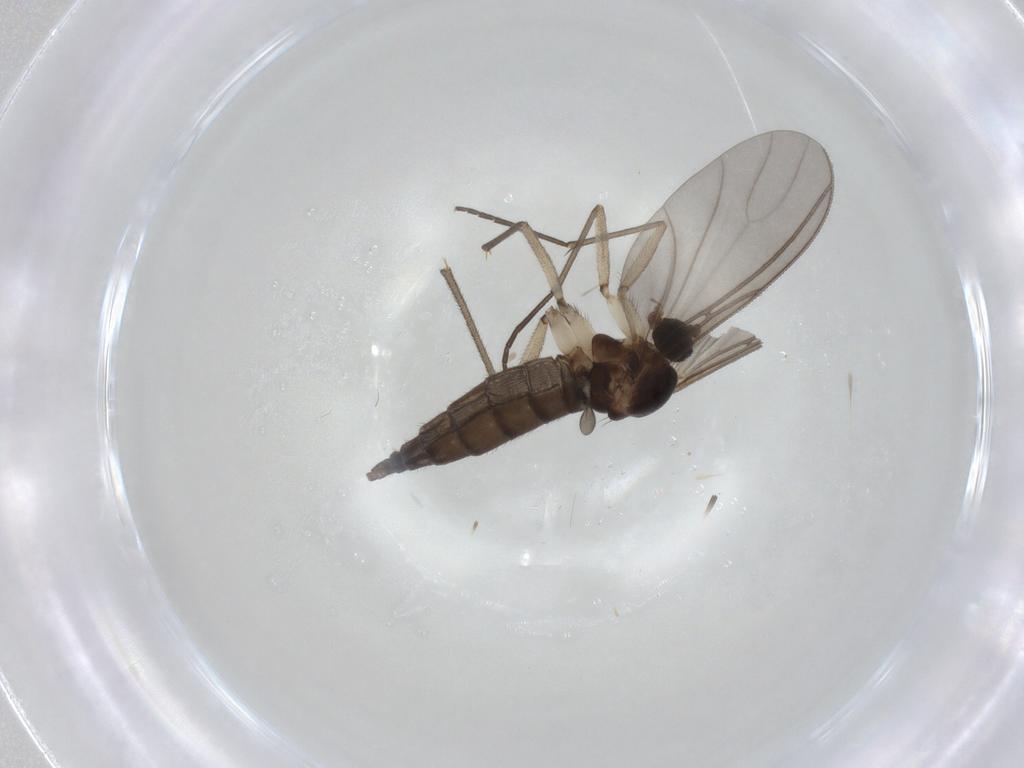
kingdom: Animalia
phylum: Arthropoda
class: Insecta
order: Diptera
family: Sciaridae
